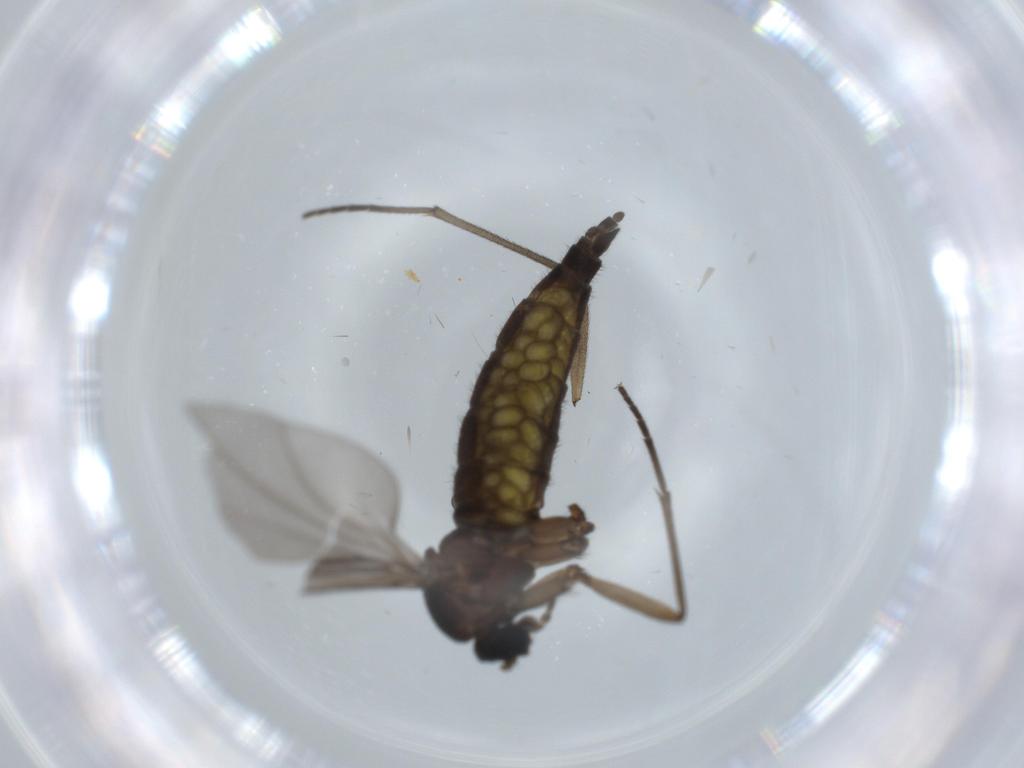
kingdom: Animalia
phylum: Arthropoda
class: Insecta
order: Diptera
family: Sciaridae
